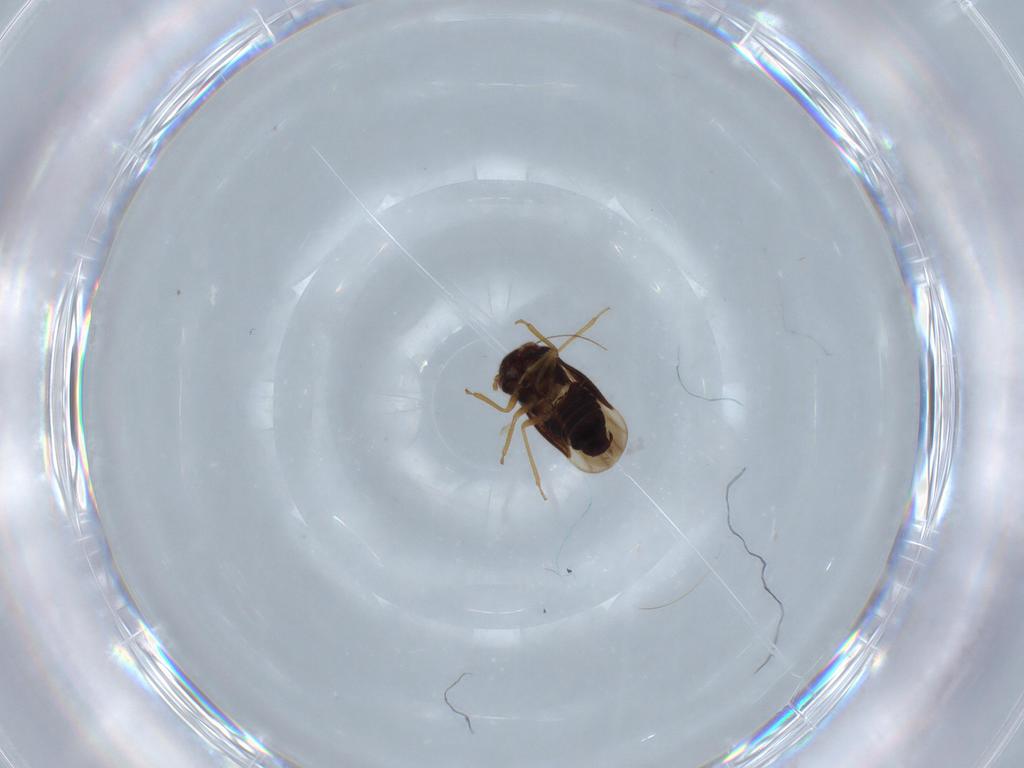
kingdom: Animalia
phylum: Arthropoda
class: Insecta
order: Hemiptera
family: Schizopteridae
